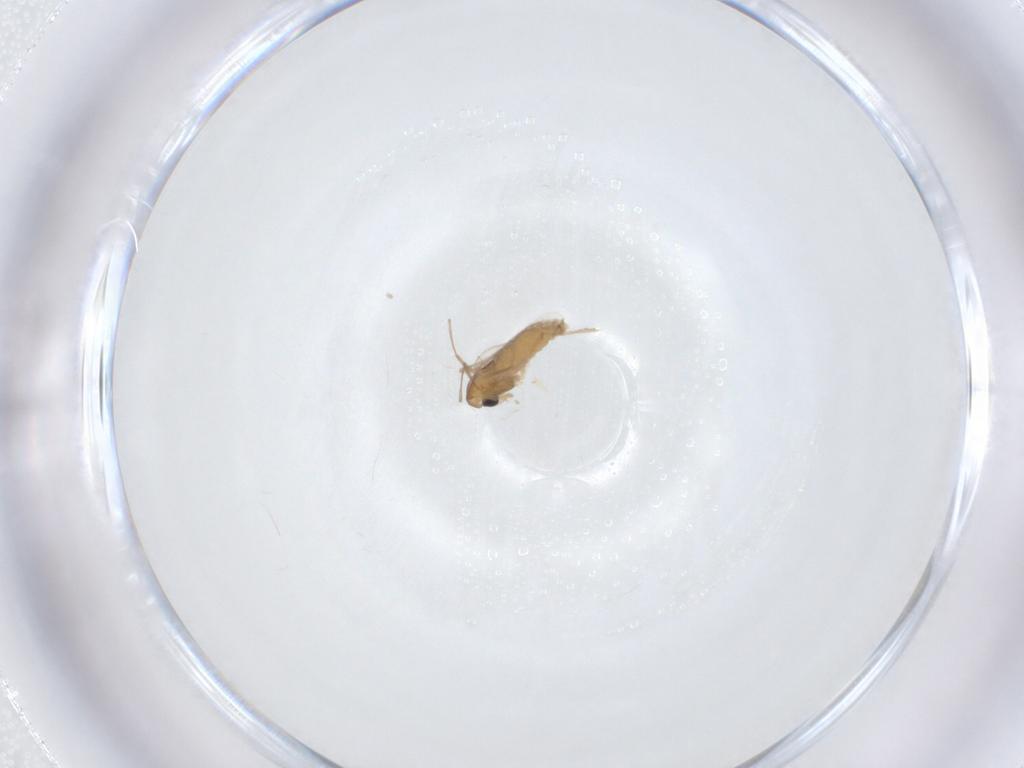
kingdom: Animalia
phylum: Arthropoda
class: Insecta
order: Diptera
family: Chironomidae
